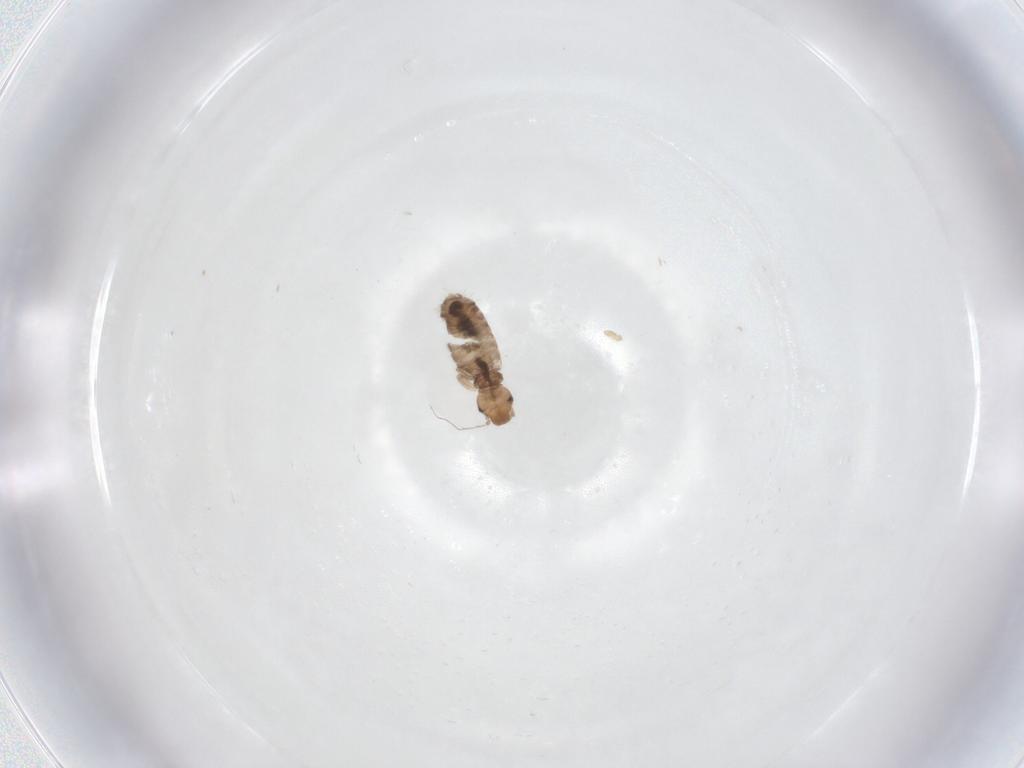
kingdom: Animalia
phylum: Arthropoda
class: Insecta
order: Psocodea
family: Liposcelididae
